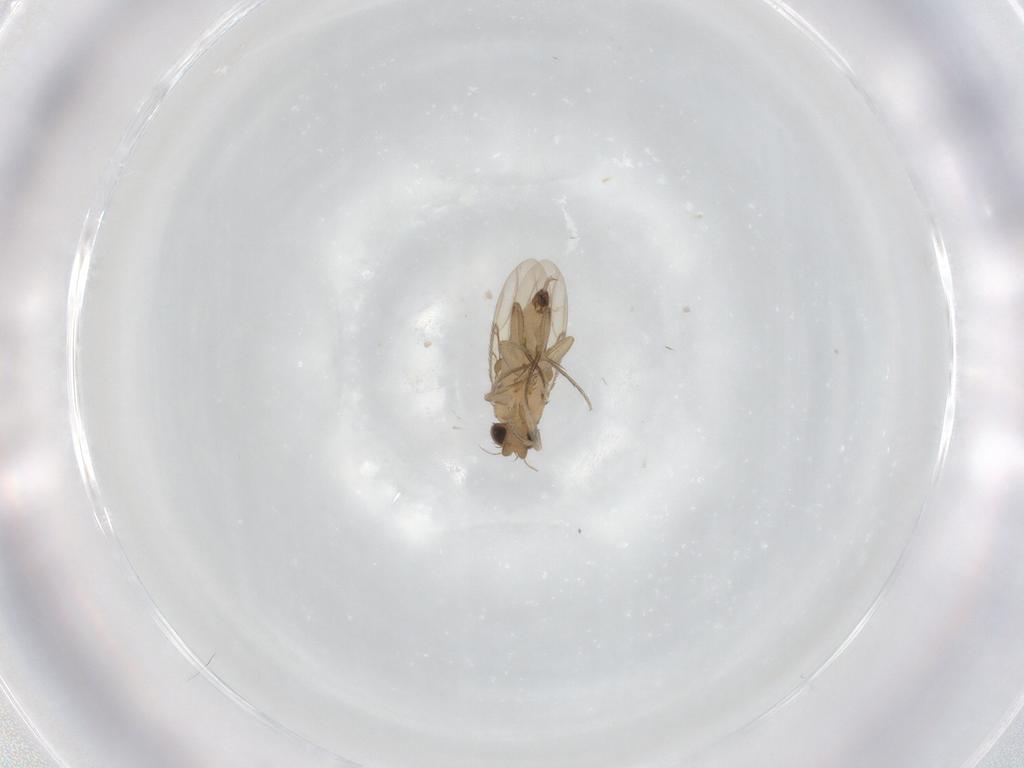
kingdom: Animalia
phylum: Arthropoda
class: Insecta
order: Diptera
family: Phoridae
